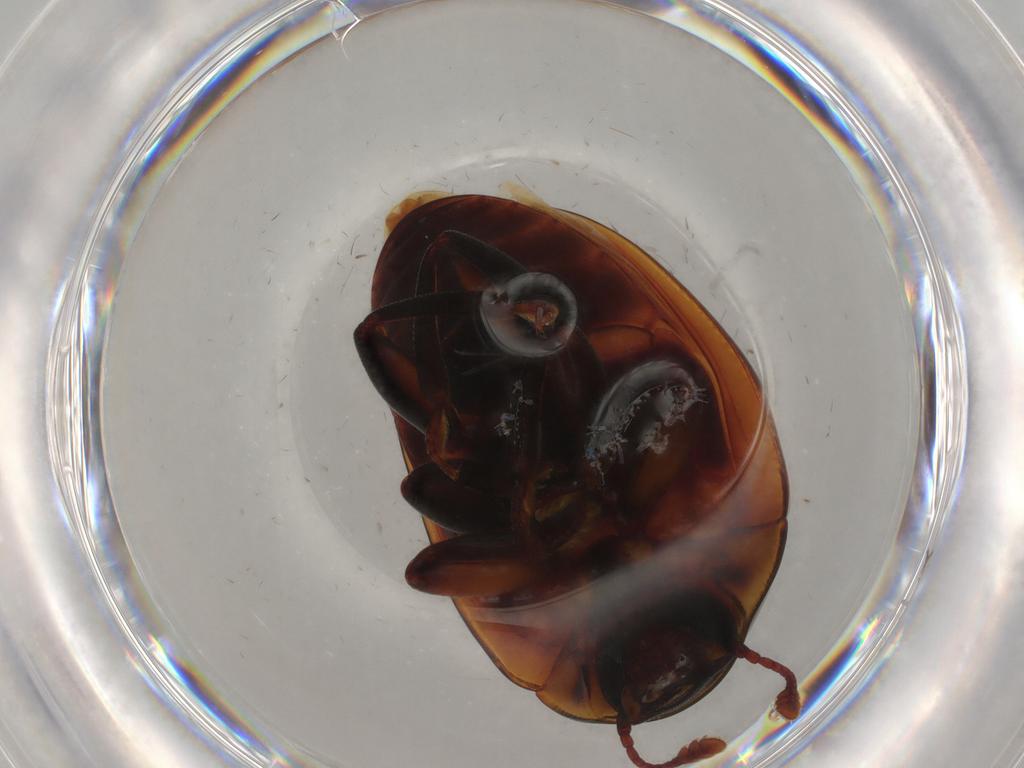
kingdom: Animalia
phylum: Arthropoda
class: Insecta
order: Coleoptera
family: Zopheridae
